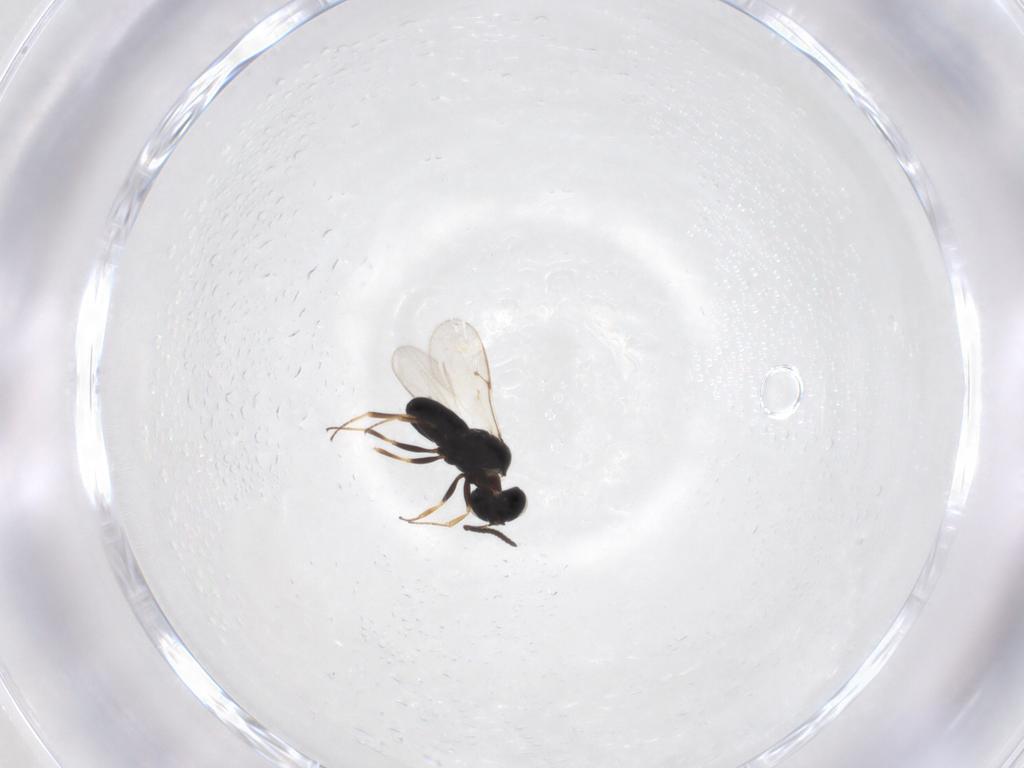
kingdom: Animalia
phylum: Arthropoda
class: Insecta
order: Hymenoptera
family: Scelionidae
